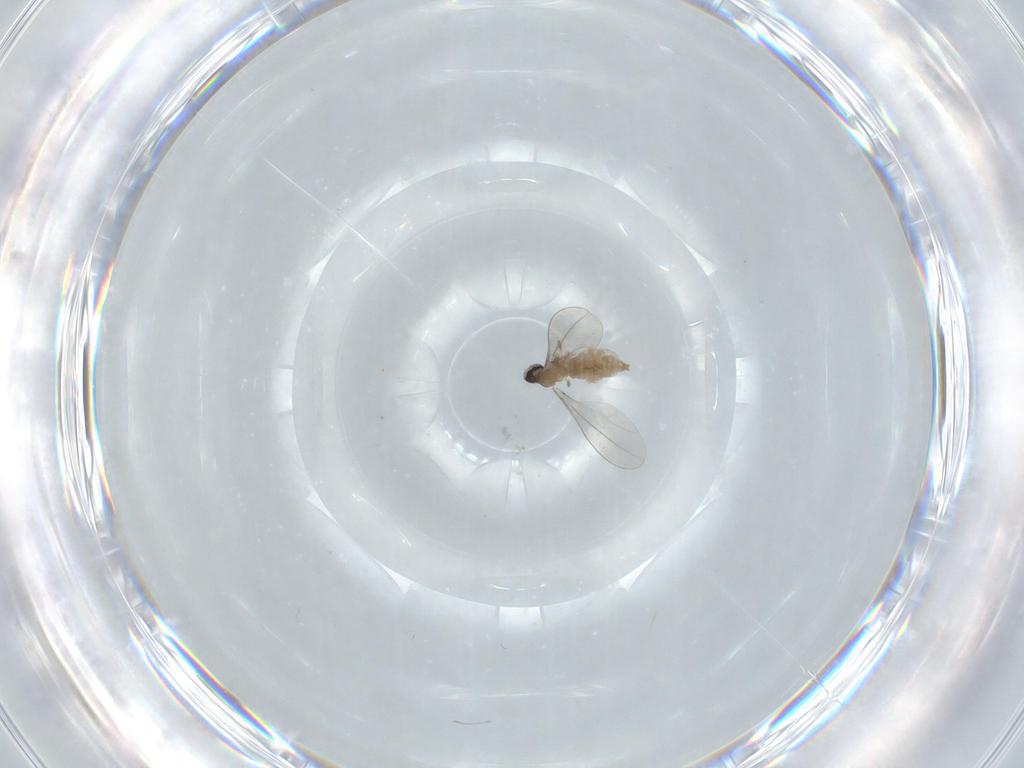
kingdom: Animalia
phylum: Arthropoda
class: Insecta
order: Diptera
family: Cecidomyiidae
